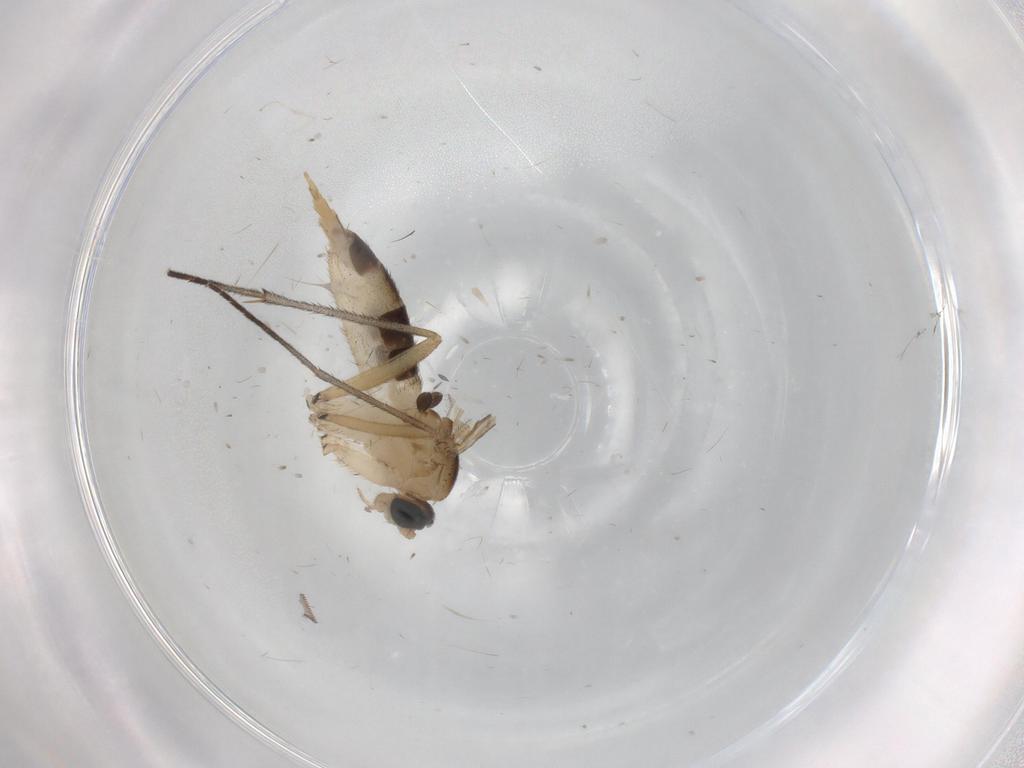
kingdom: Animalia
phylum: Arthropoda
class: Insecta
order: Diptera
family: Sciaridae
